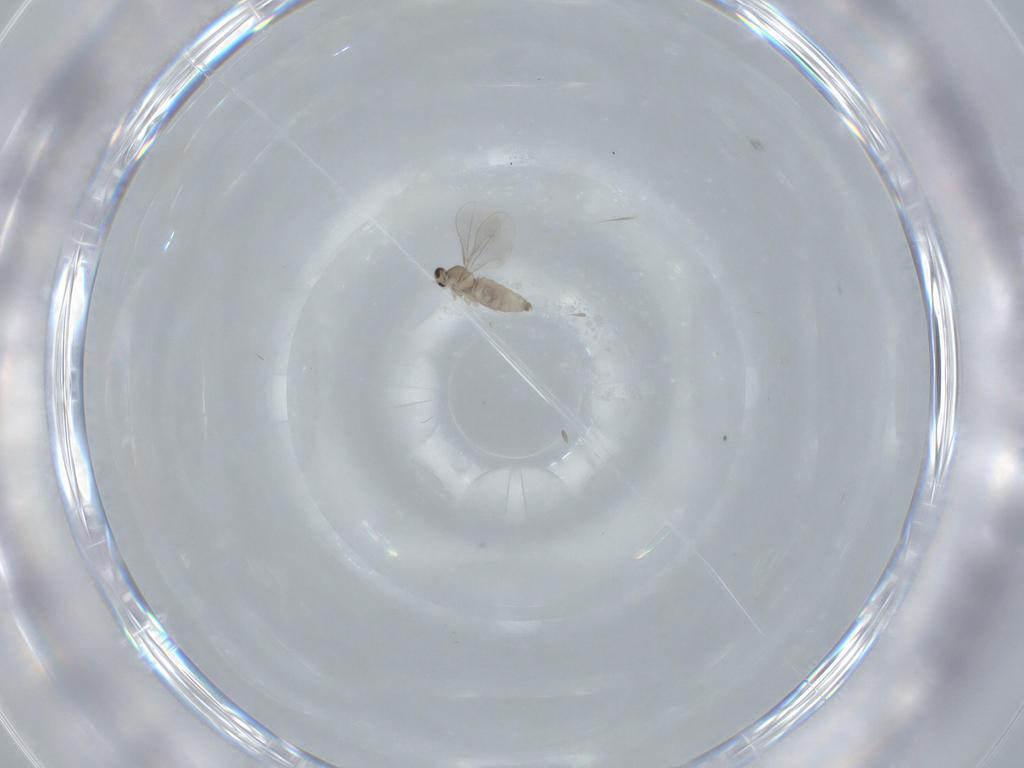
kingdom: Animalia
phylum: Arthropoda
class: Insecta
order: Diptera
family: Cecidomyiidae
